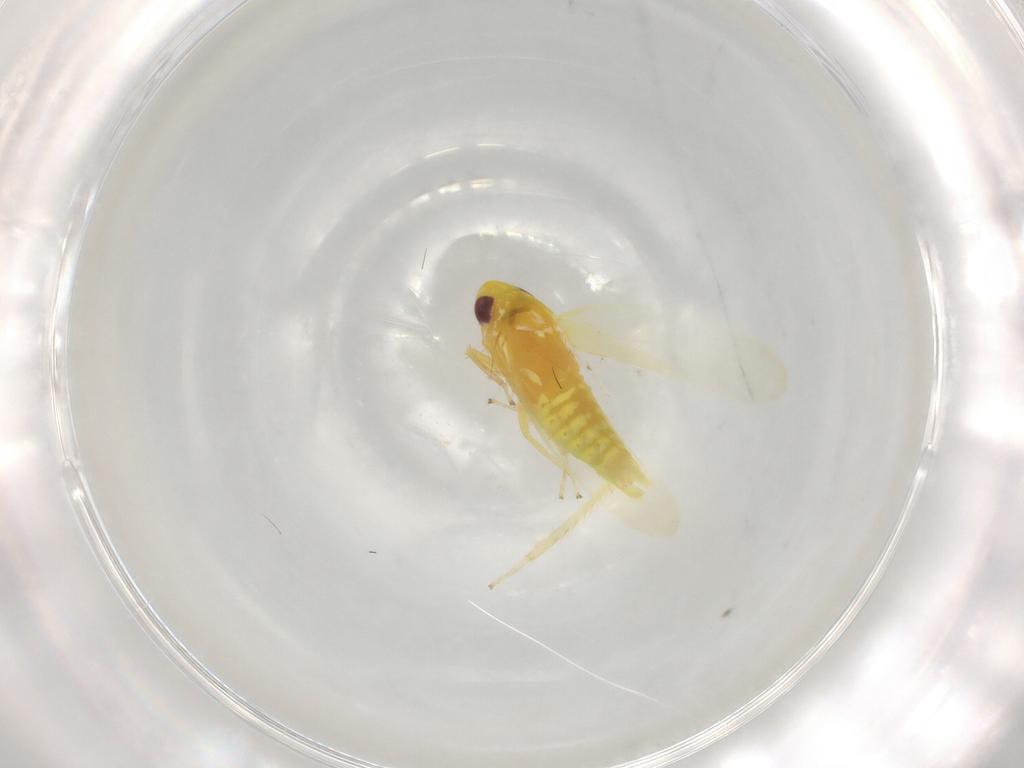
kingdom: Animalia
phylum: Arthropoda
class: Insecta
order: Hemiptera
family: Cicadellidae
